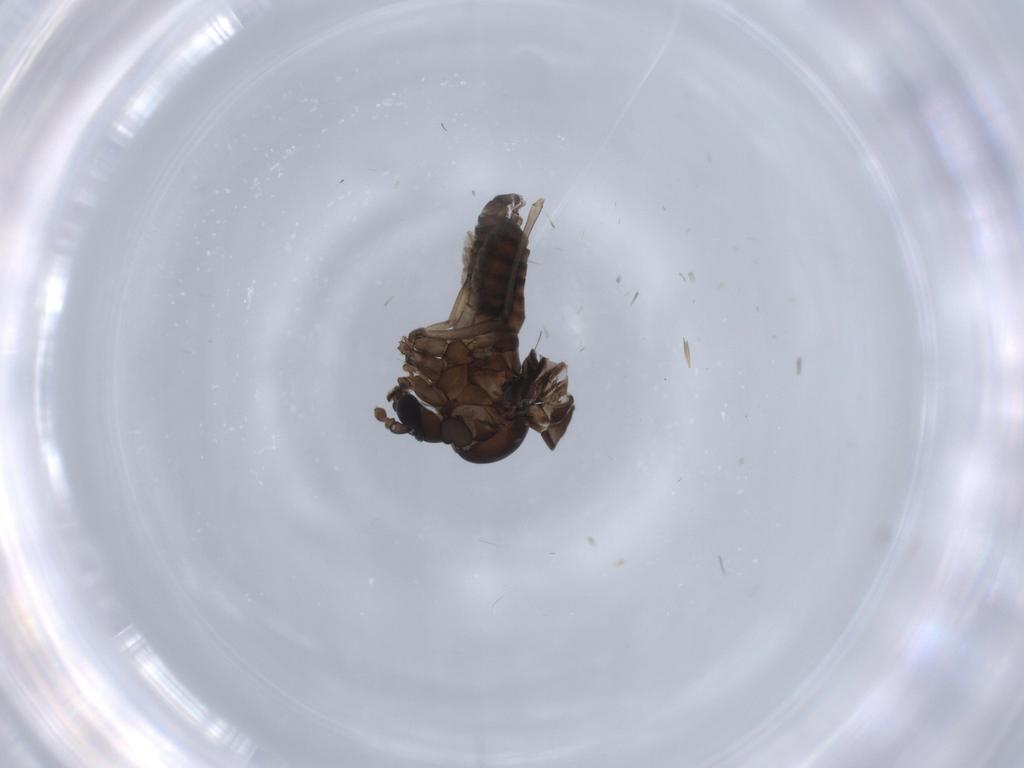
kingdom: Animalia
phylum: Arthropoda
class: Insecta
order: Diptera
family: Psychodidae
